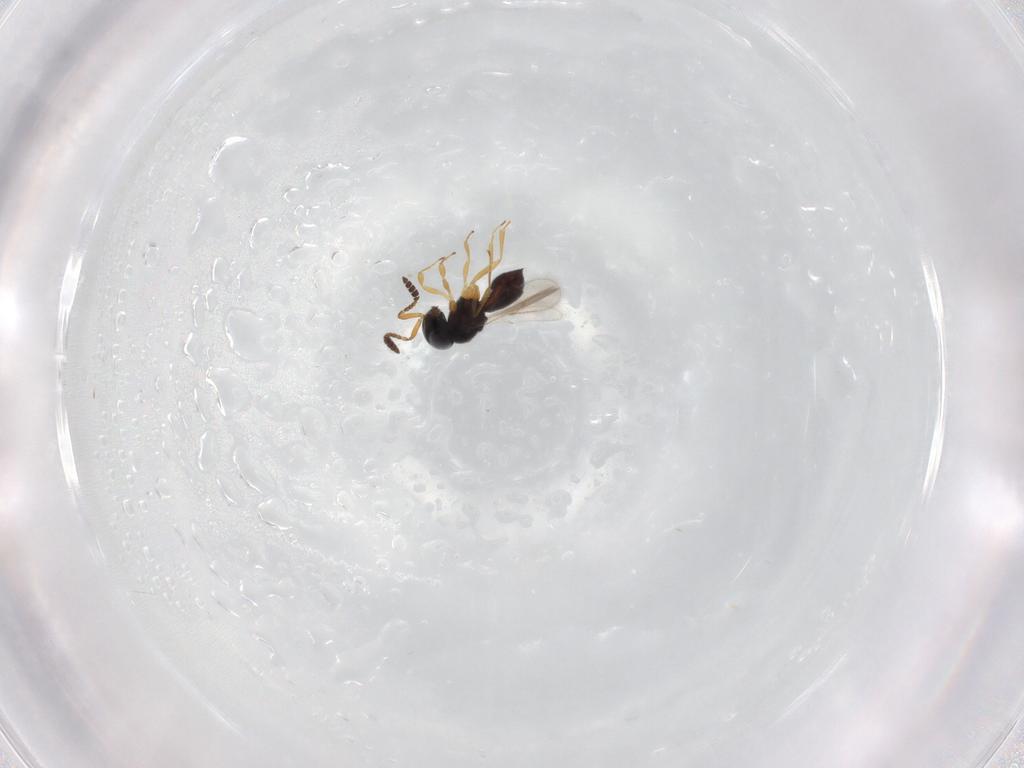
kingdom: Animalia
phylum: Arthropoda
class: Insecta
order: Hymenoptera
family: Scelionidae
